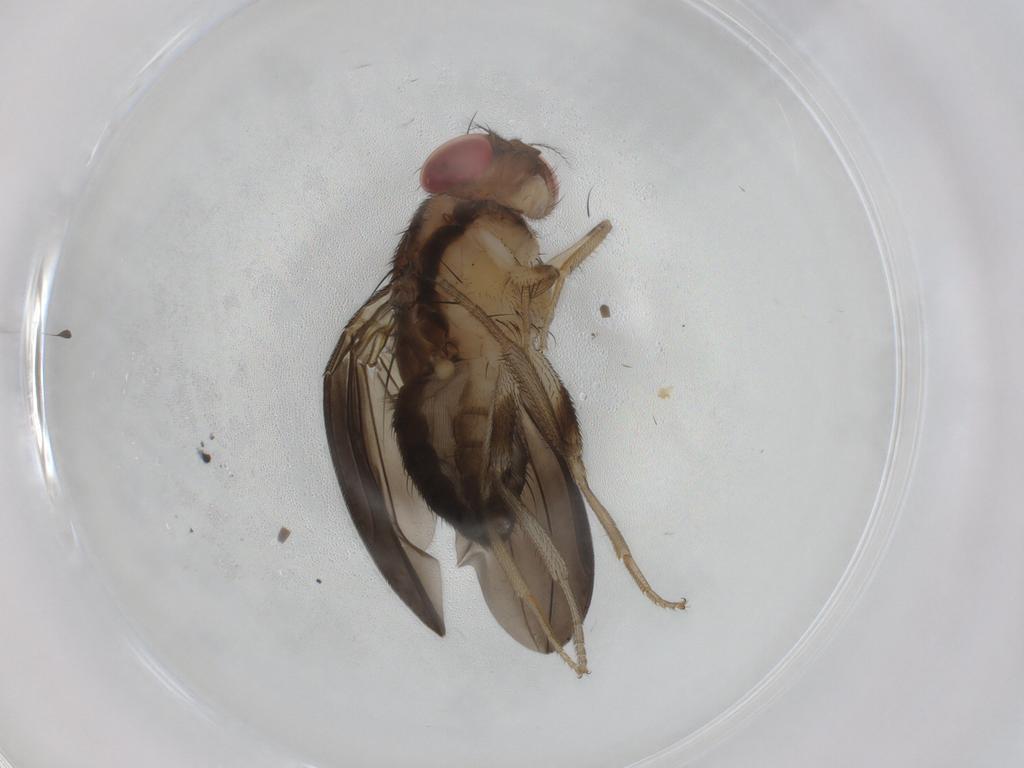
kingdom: Animalia
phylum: Arthropoda
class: Insecta
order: Diptera
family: Drosophilidae
